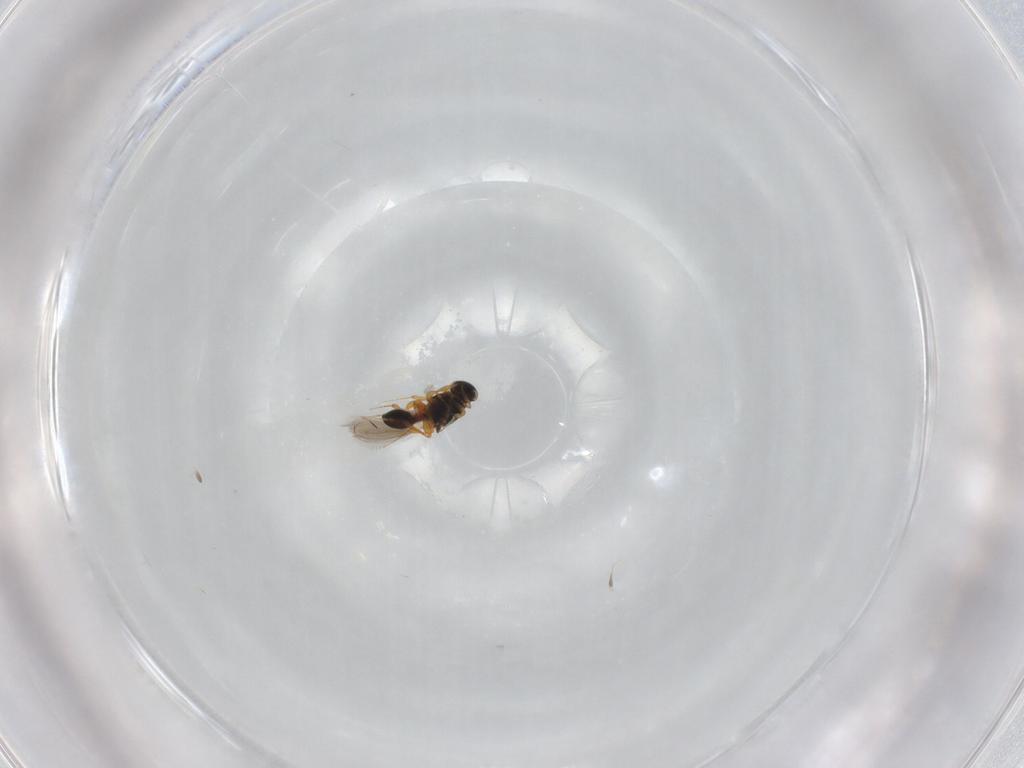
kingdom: Animalia
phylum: Arthropoda
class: Insecta
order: Hymenoptera
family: Platygastridae
